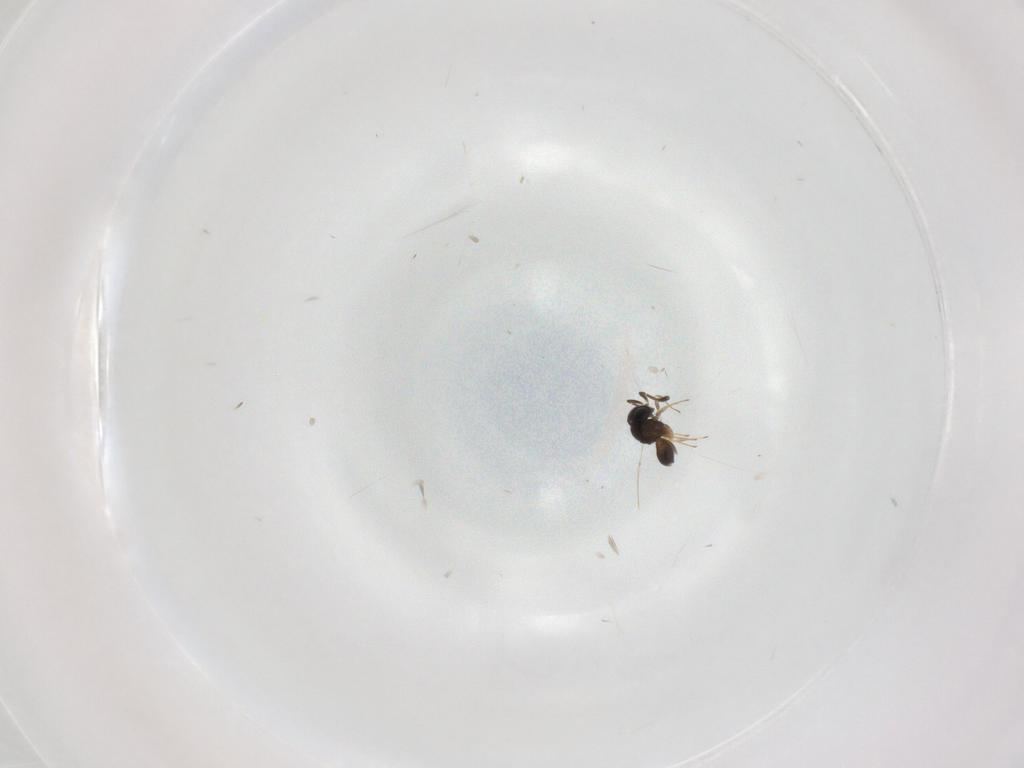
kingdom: Animalia
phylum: Arthropoda
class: Insecta
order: Hymenoptera
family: Scelionidae
